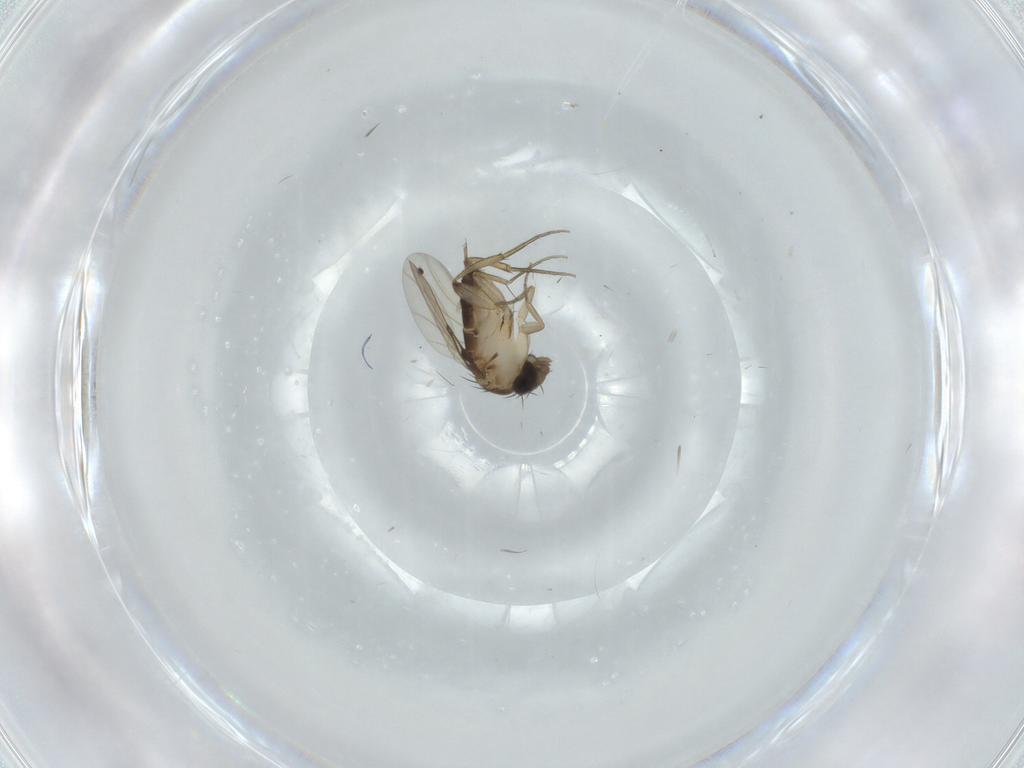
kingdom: Animalia
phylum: Arthropoda
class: Insecta
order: Diptera
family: Phoridae
